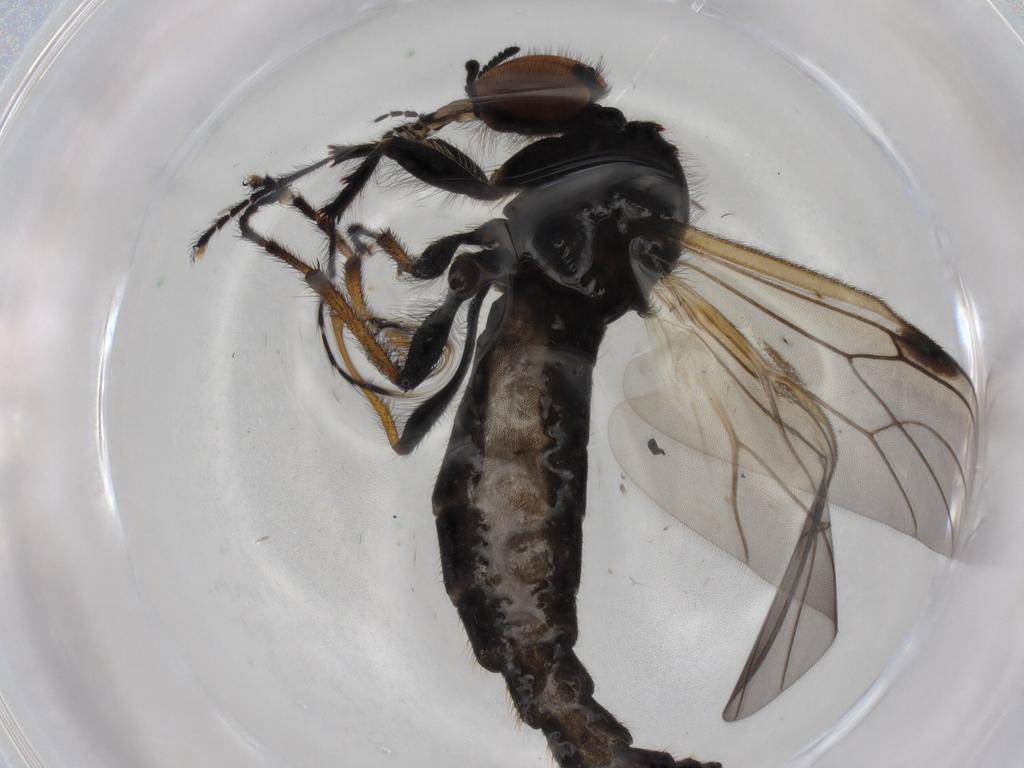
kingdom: Animalia
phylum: Arthropoda
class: Insecta
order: Diptera
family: Bibionidae
